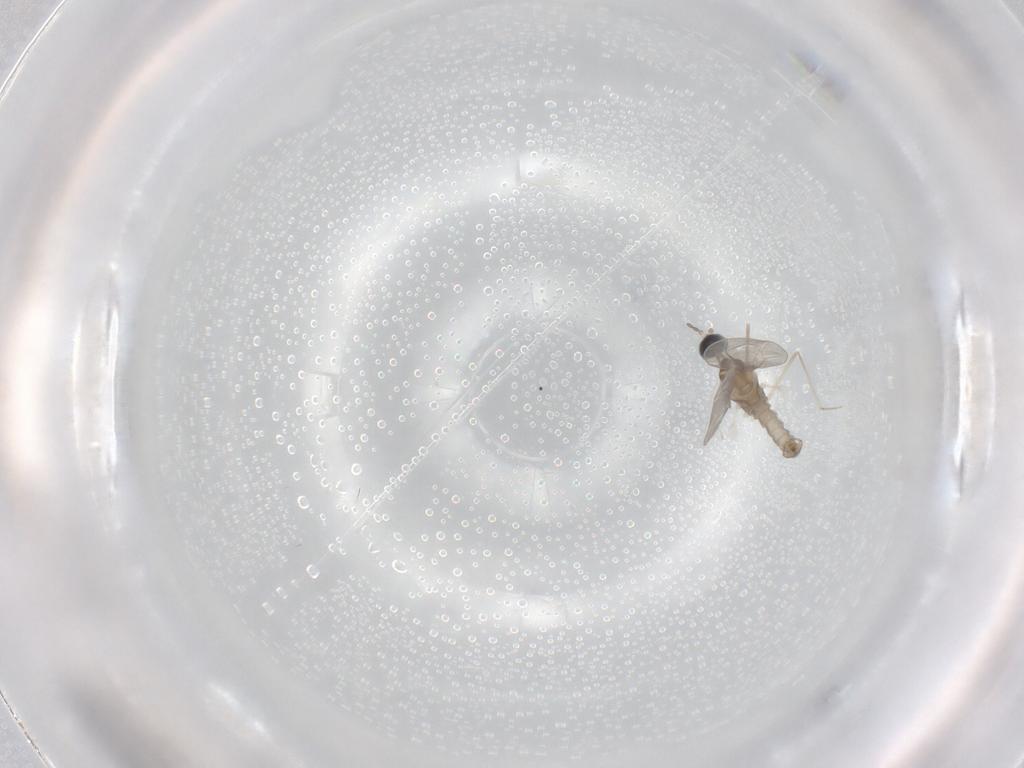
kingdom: Animalia
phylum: Arthropoda
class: Insecta
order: Diptera
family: Cecidomyiidae
